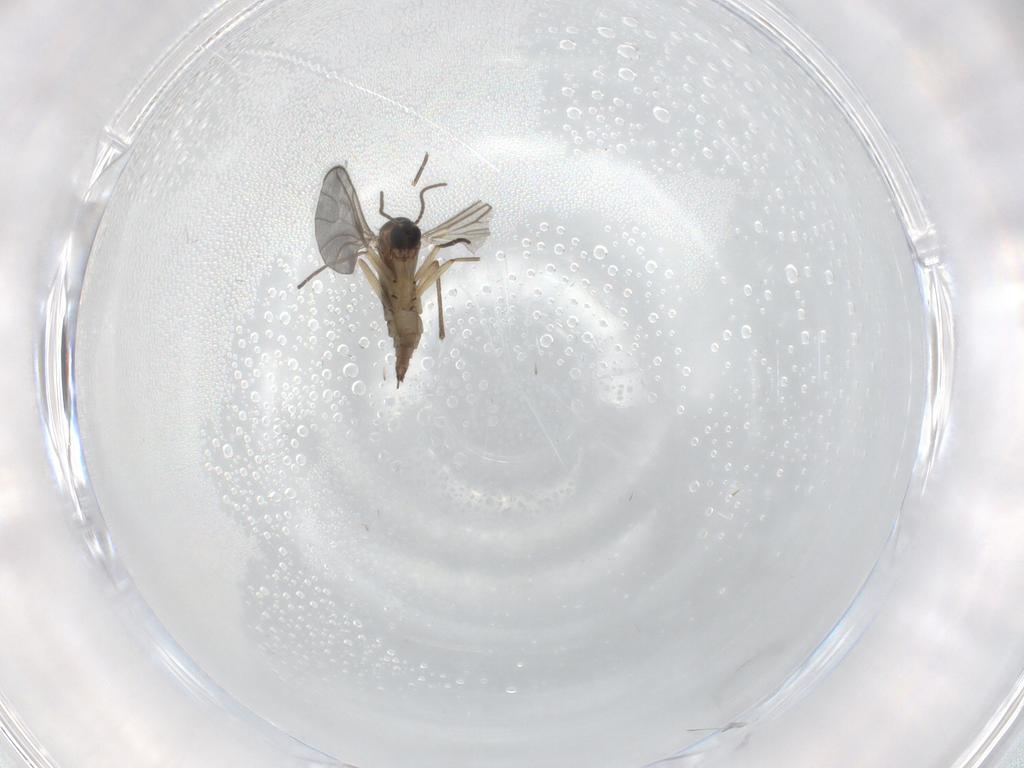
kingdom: Animalia
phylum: Arthropoda
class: Insecta
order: Diptera
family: Sciaridae
